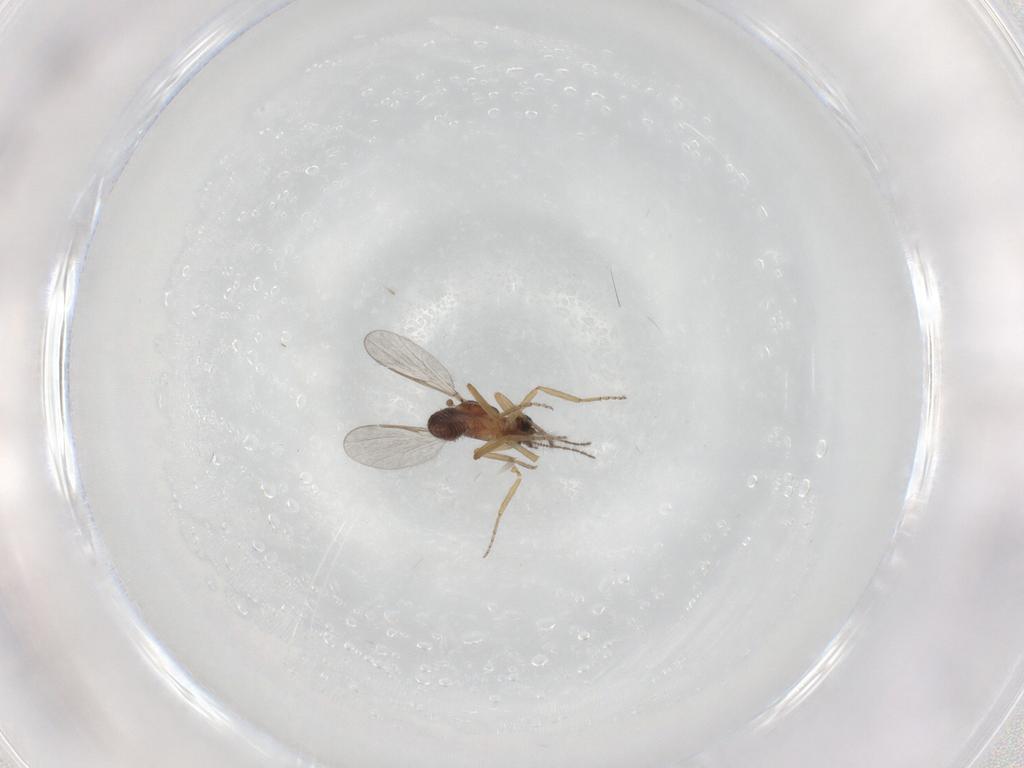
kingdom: Animalia
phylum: Arthropoda
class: Insecta
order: Diptera
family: Ceratopogonidae
